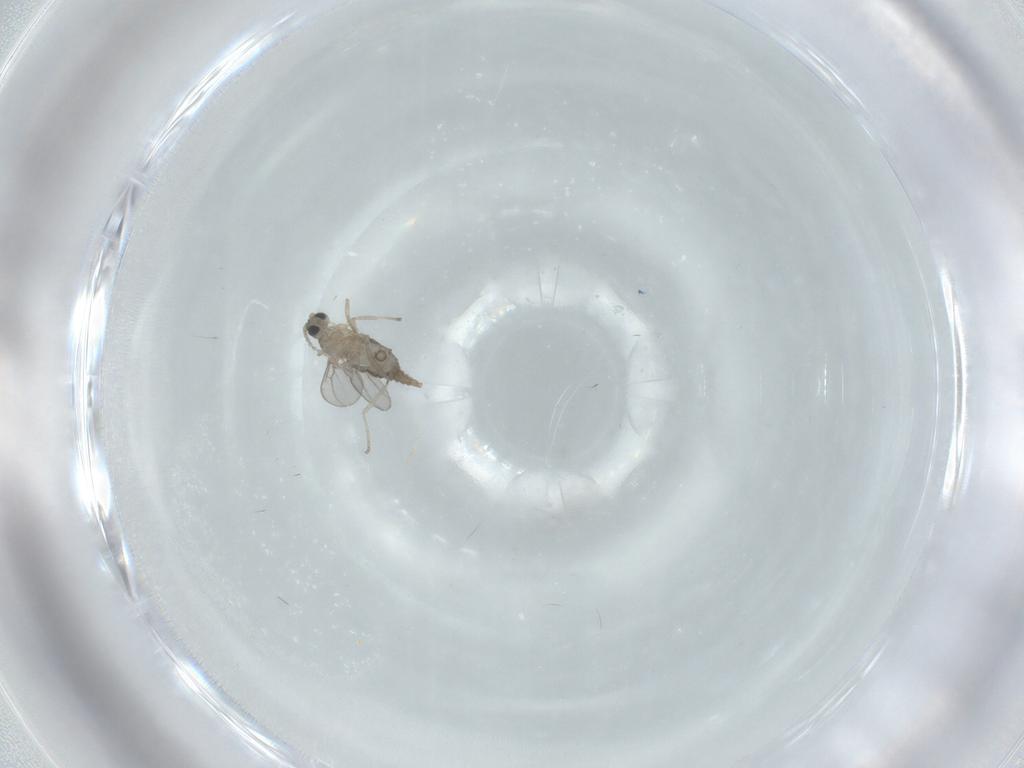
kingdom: Animalia
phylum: Arthropoda
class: Insecta
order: Diptera
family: Cecidomyiidae
